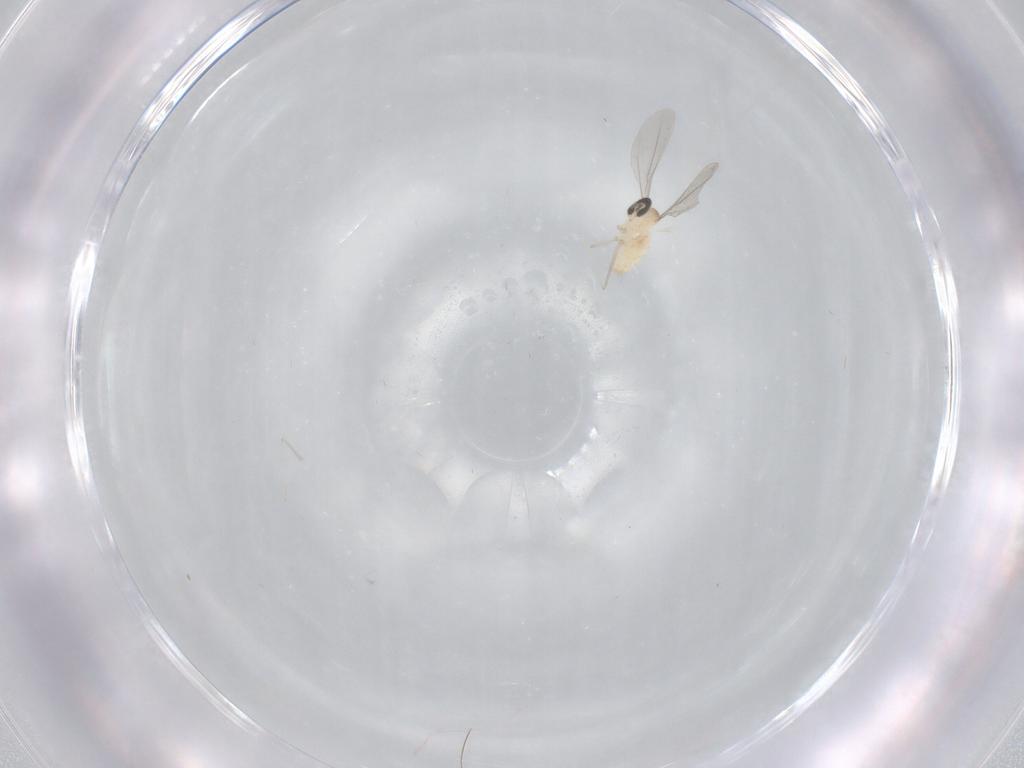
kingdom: Animalia
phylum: Arthropoda
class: Insecta
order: Diptera
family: Cecidomyiidae
